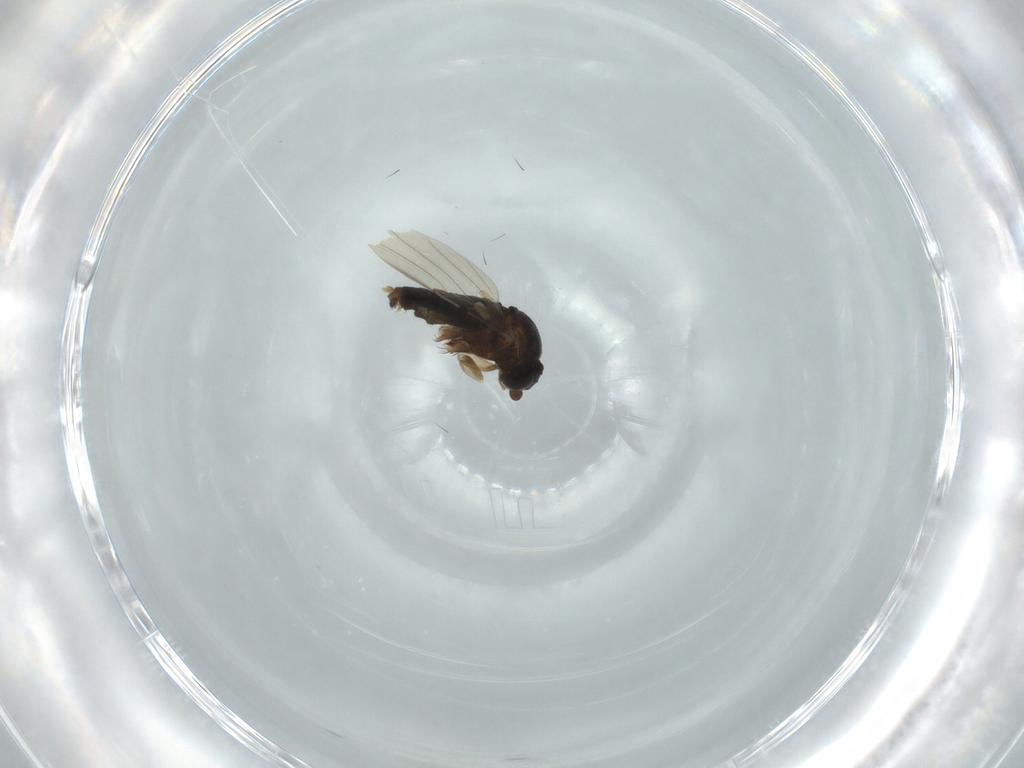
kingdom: Animalia
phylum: Arthropoda
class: Insecta
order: Diptera
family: Phoridae
